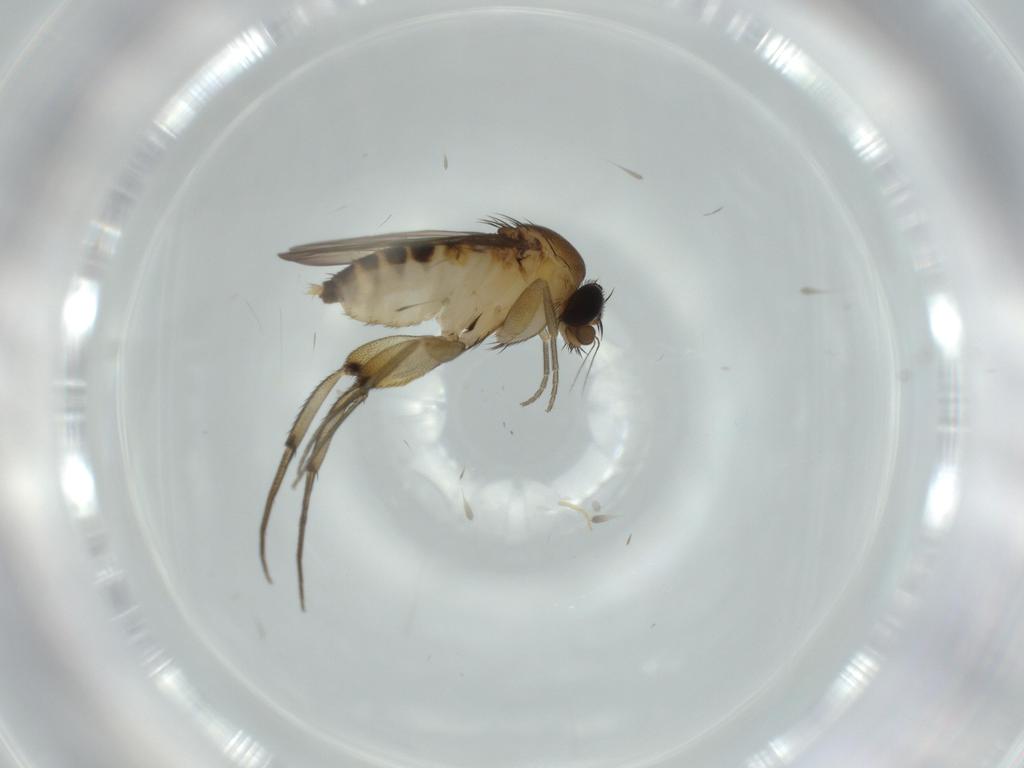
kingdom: Animalia
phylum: Arthropoda
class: Insecta
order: Diptera
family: Phoridae
